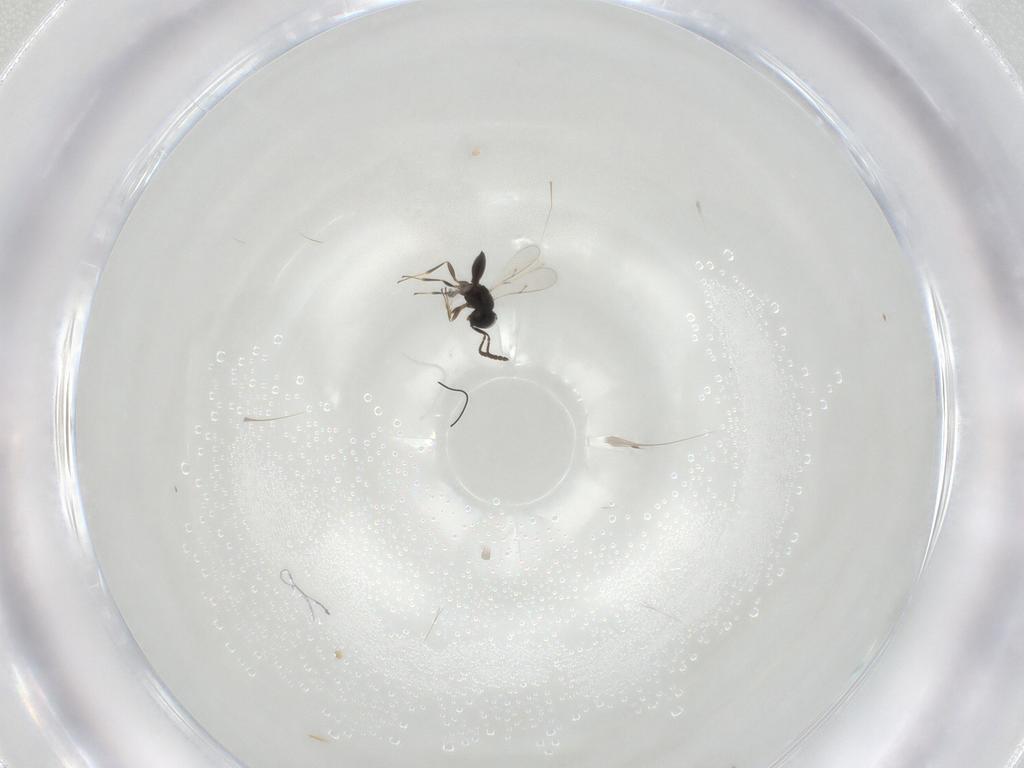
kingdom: Animalia
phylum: Arthropoda
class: Insecta
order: Hymenoptera
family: Scelionidae
